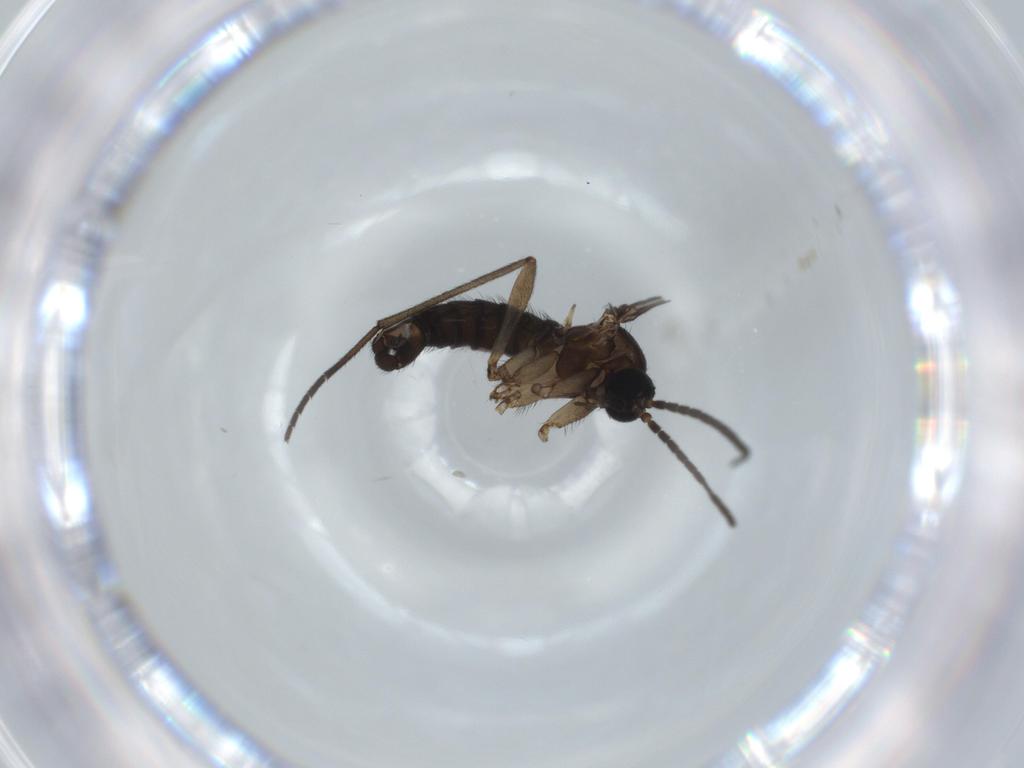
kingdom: Animalia
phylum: Arthropoda
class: Insecta
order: Diptera
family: Sciaridae
